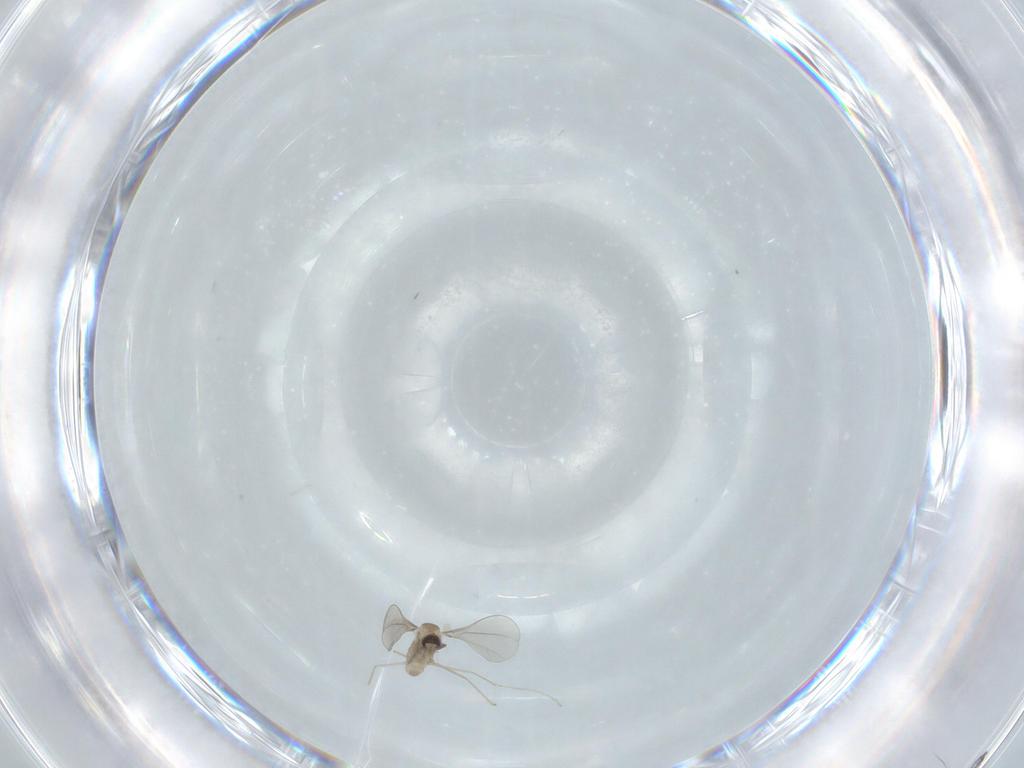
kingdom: Animalia
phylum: Arthropoda
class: Insecta
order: Diptera
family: Cecidomyiidae
